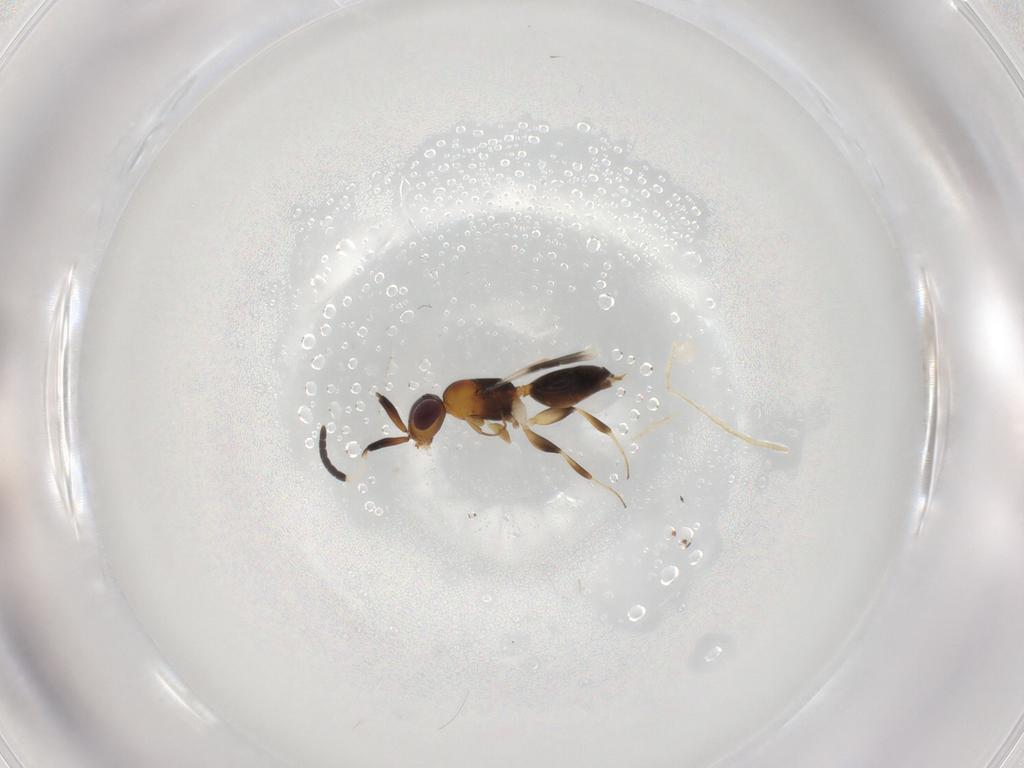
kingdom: Animalia
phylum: Arthropoda
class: Insecta
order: Hymenoptera
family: Megaspilidae
